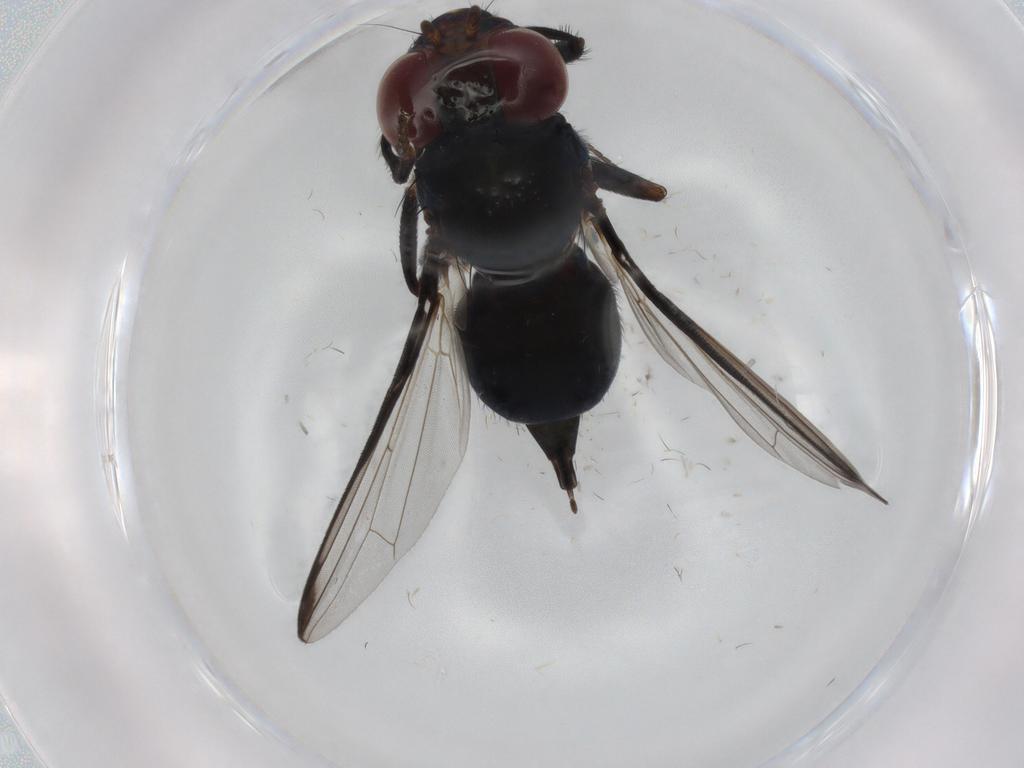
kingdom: Animalia
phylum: Arthropoda
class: Insecta
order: Diptera
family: Ulidiidae
